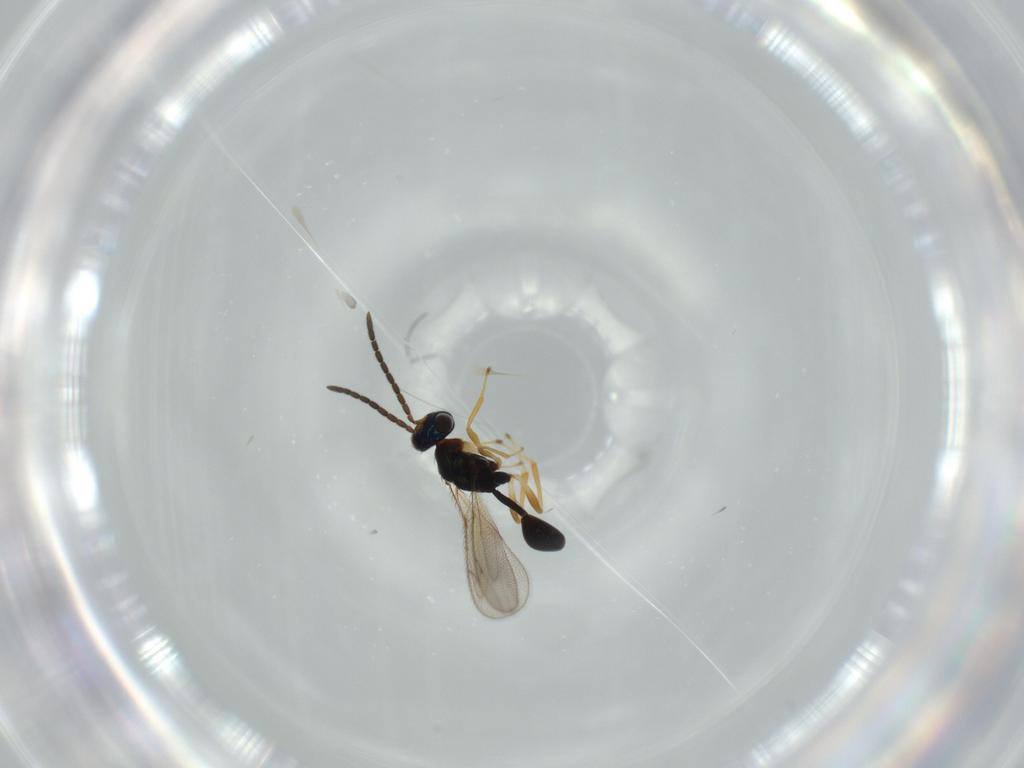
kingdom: Animalia
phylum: Arthropoda
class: Insecta
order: Hymenoptera
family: Diparidae
